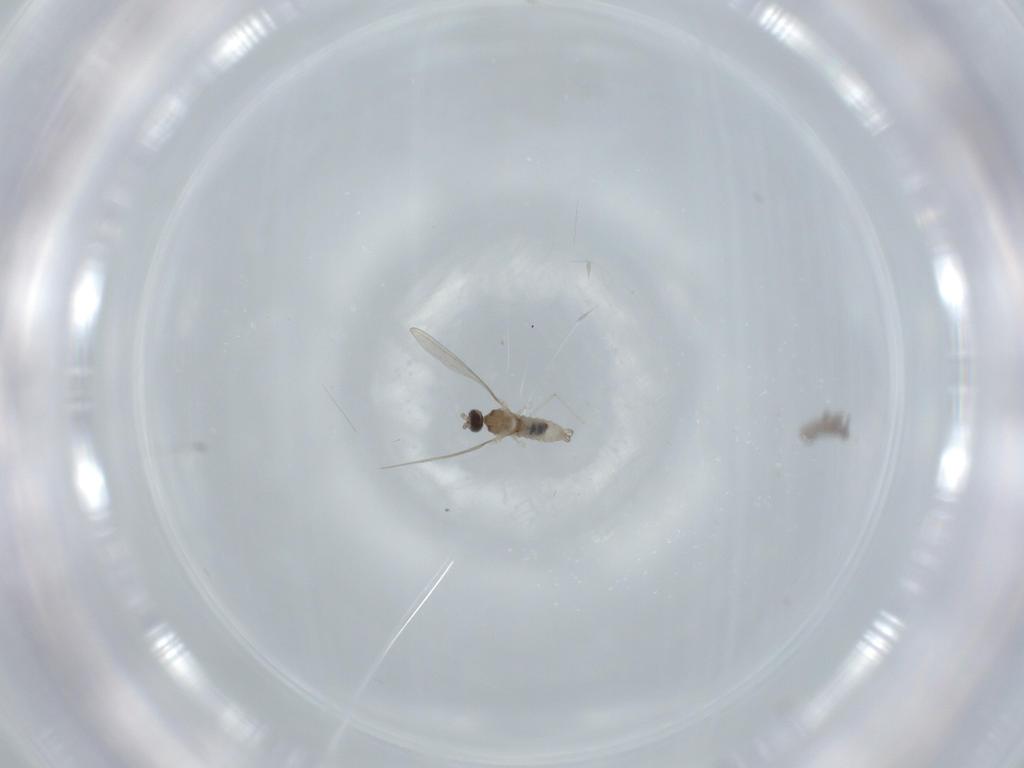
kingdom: Animalia
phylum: Arthropoda
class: Insecta
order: Diptera
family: Cecidomyiidae
